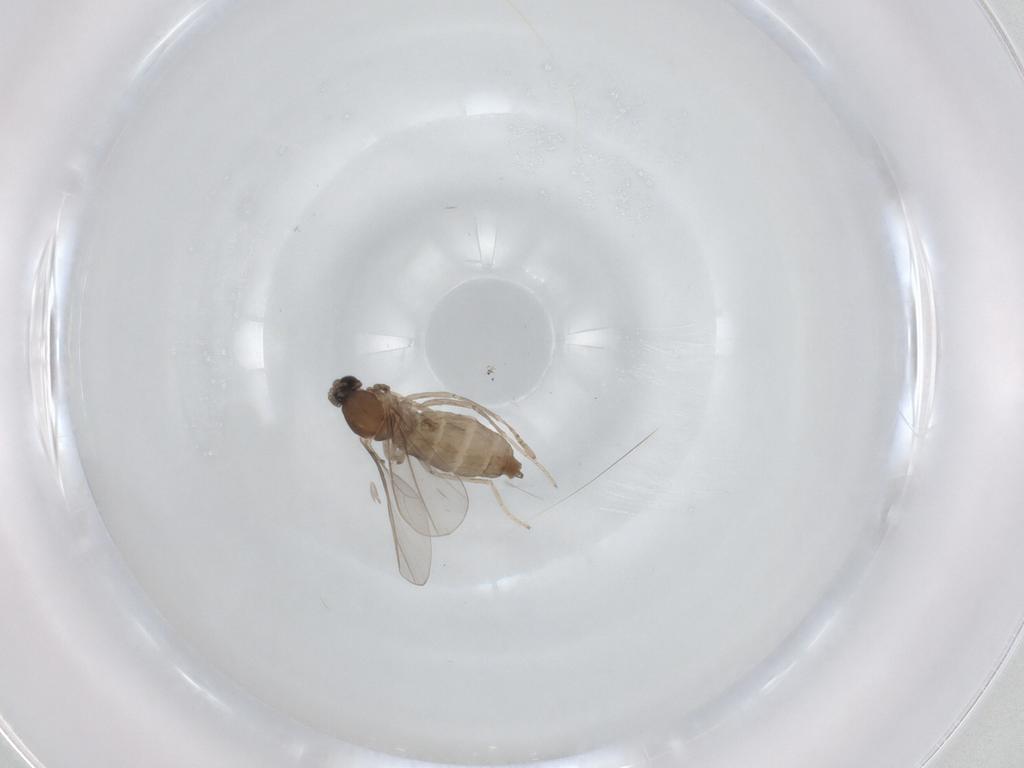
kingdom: Animalia
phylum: Arthropoda
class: Insecta
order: Diptera
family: Cecidomyiidae
